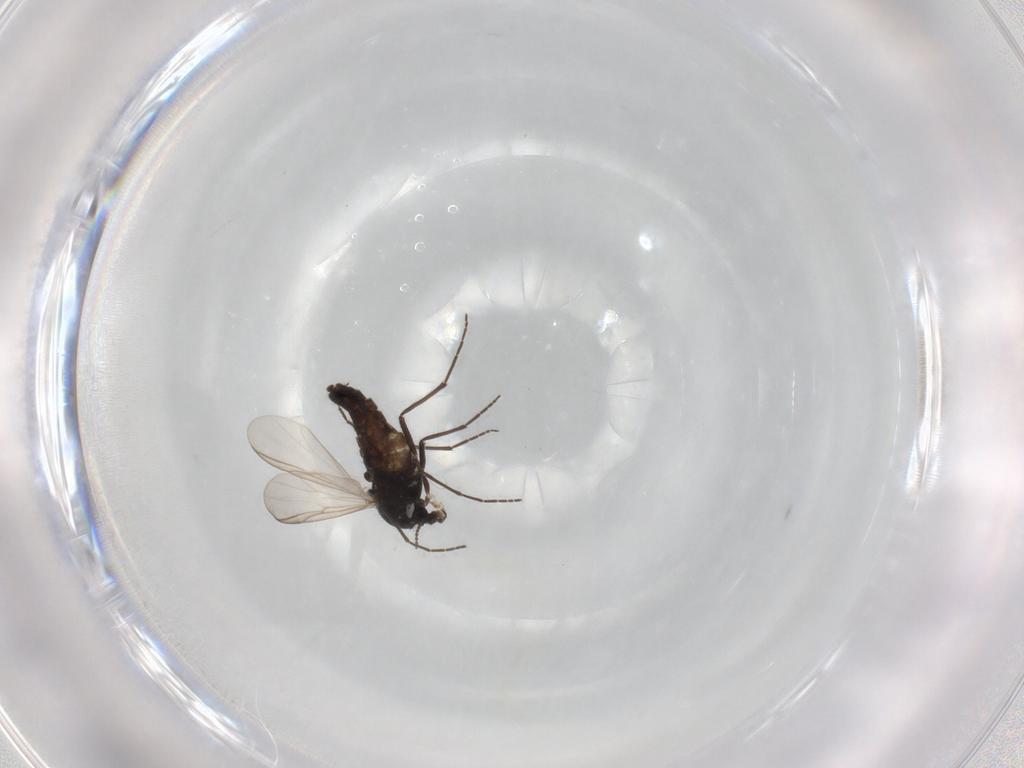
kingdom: Animalia
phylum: Arthropoda
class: Insecta
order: Diptera
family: Chironomidae
